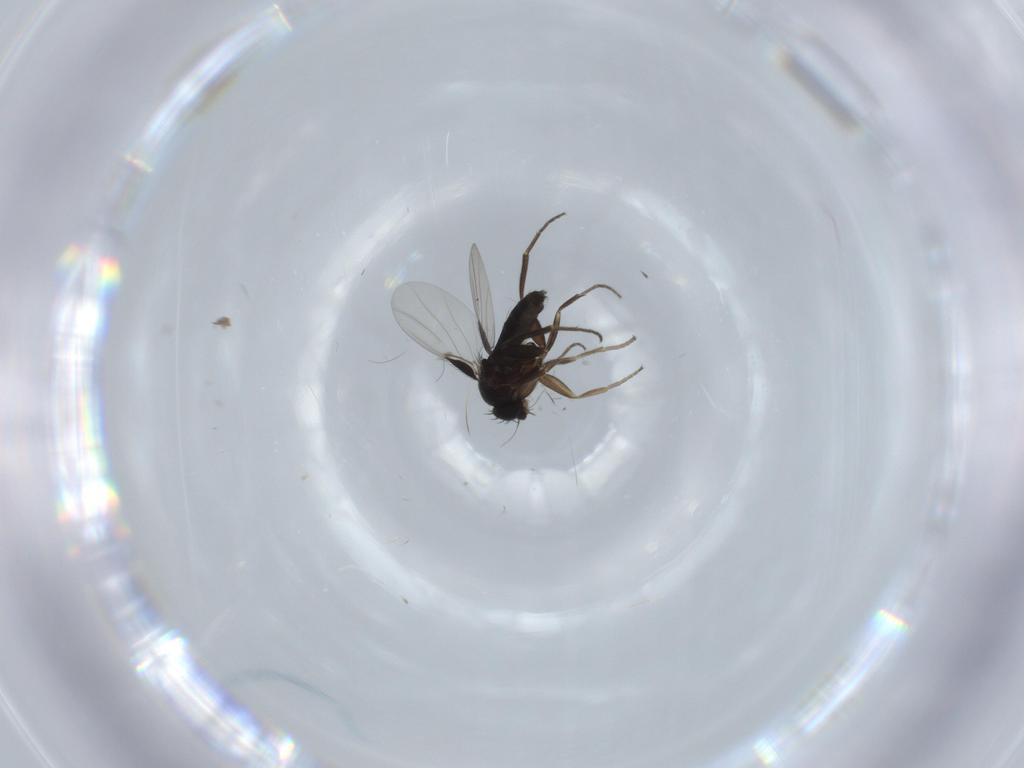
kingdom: Animalia
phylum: Arthropoda
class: Insecta
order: Diptera
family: Phoridae
